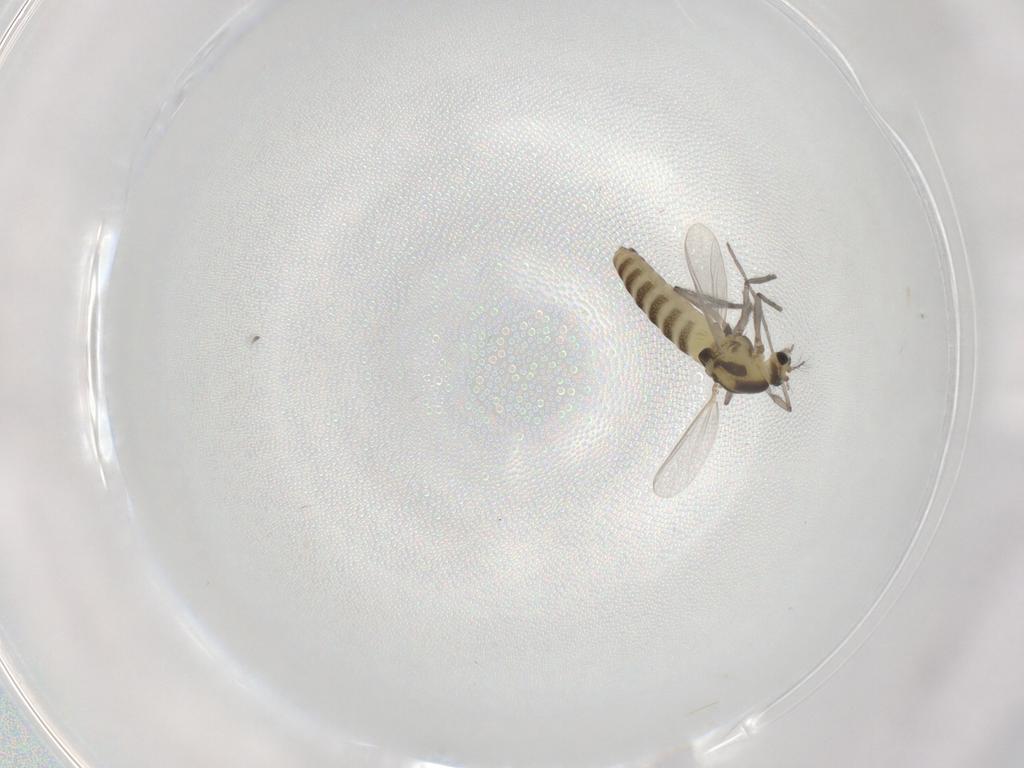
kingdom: Animalia
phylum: Arthropoda
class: Insecta
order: Diptera
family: Chironomidae
